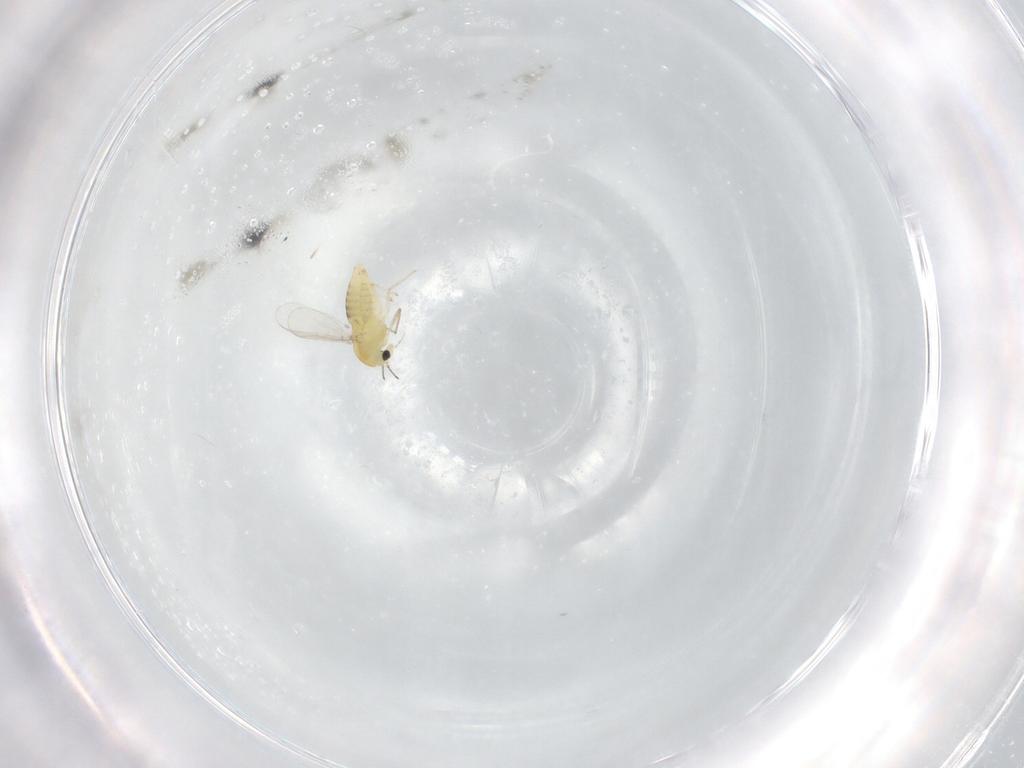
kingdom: Animalia
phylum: Arthropoda
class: Insecta
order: Diptera
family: Chironomidae
